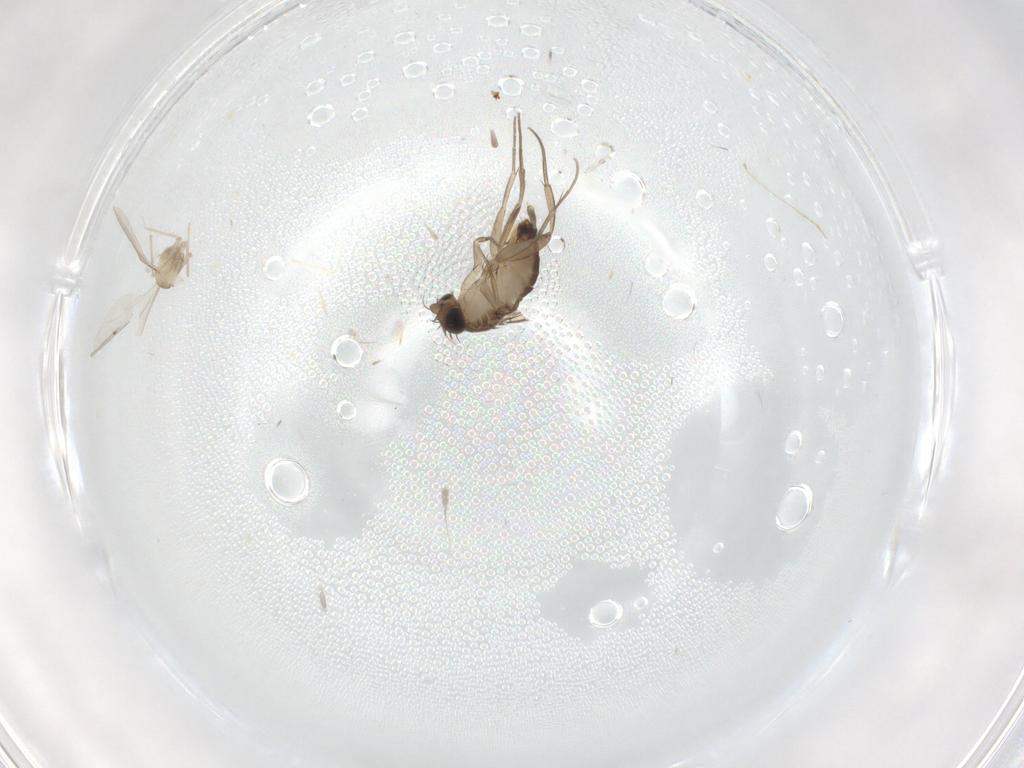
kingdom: Animalia
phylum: Arthropoda
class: Insecta
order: Diptera
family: Phoridae
